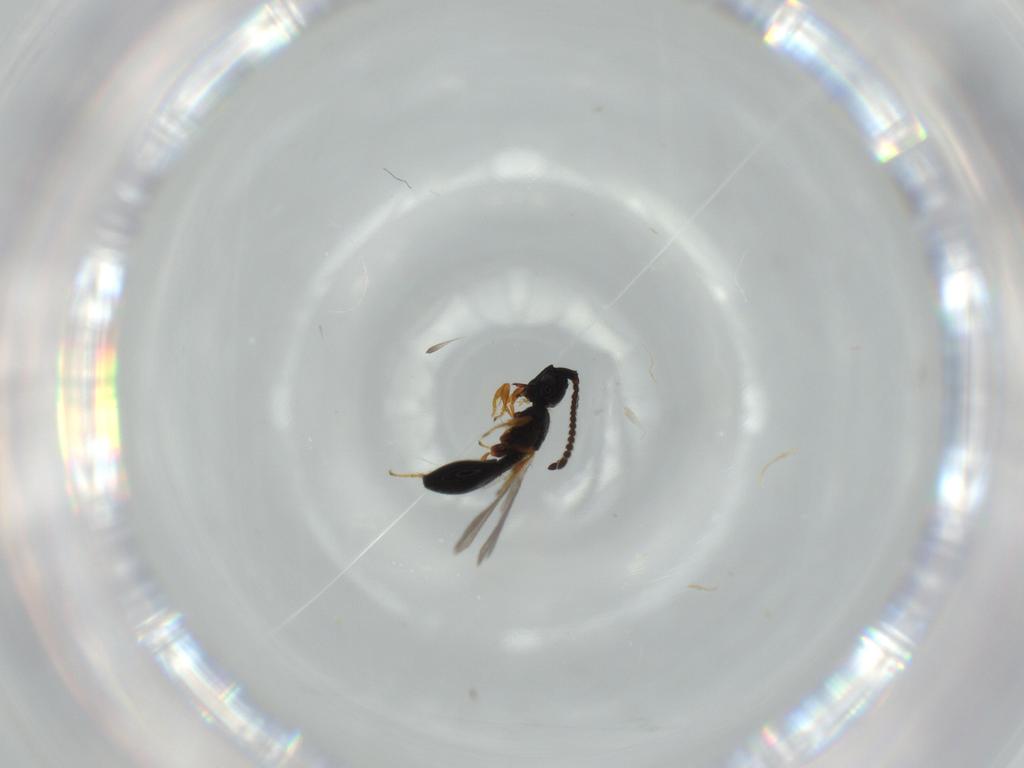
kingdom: Animalia
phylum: Arthropoda
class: Insecta
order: Hymenoptera
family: Diapriidae
